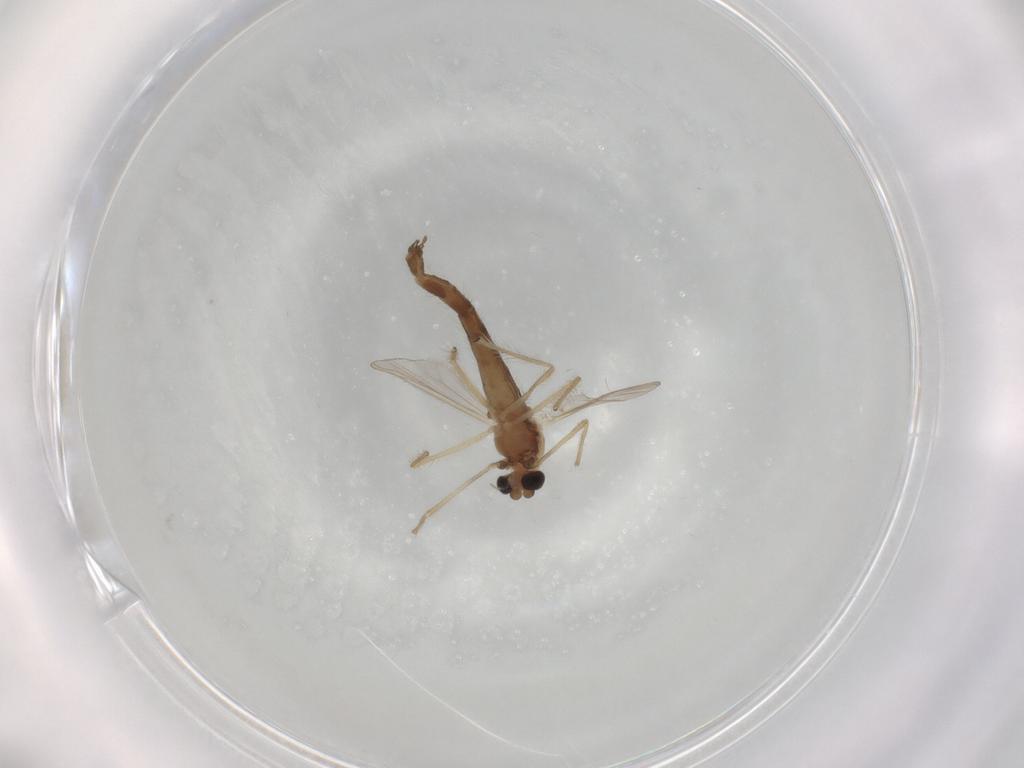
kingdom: Animalia
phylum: Arthropoda
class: Insecta
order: Diptera
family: Chironomidae
